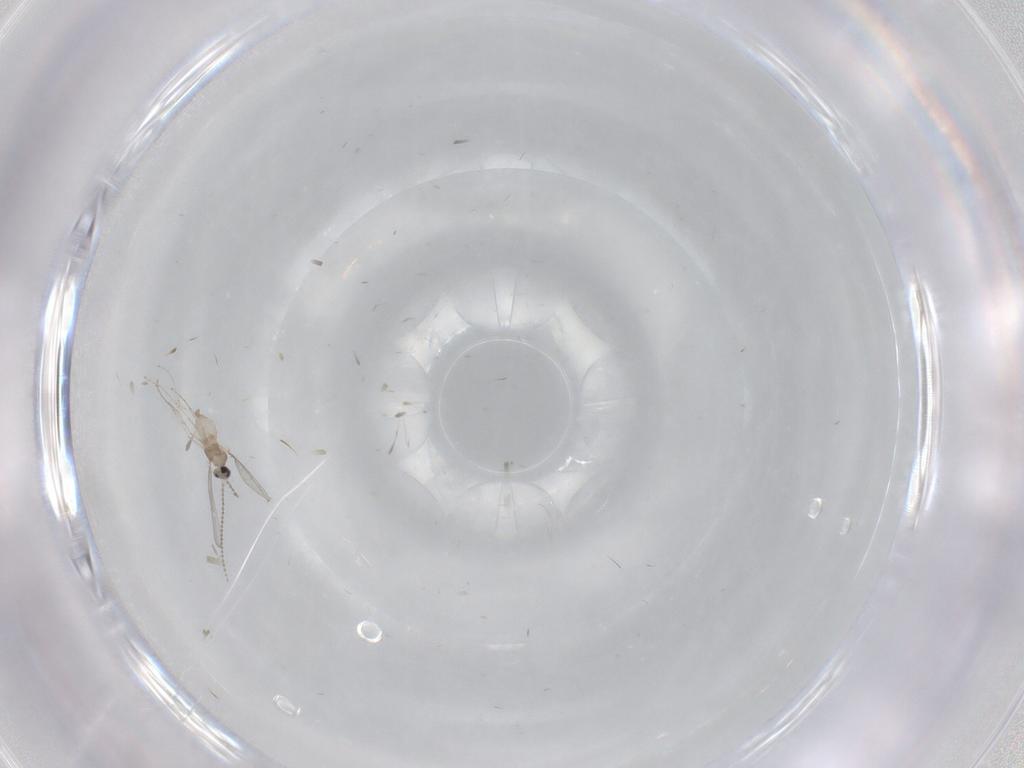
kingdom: Animalia
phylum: Arthropoda
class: Insecta
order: Diptera
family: Cecidomyiidae
